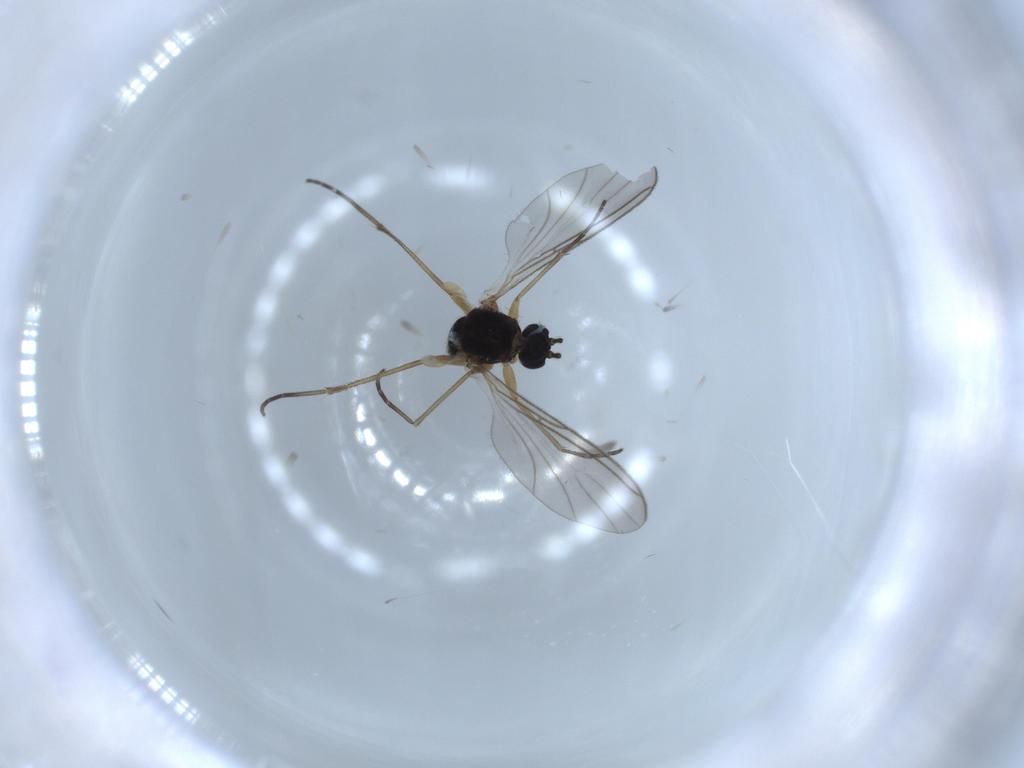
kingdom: Animalia
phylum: Arthropoda
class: Insecta
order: Diptera
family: Sciaridae
